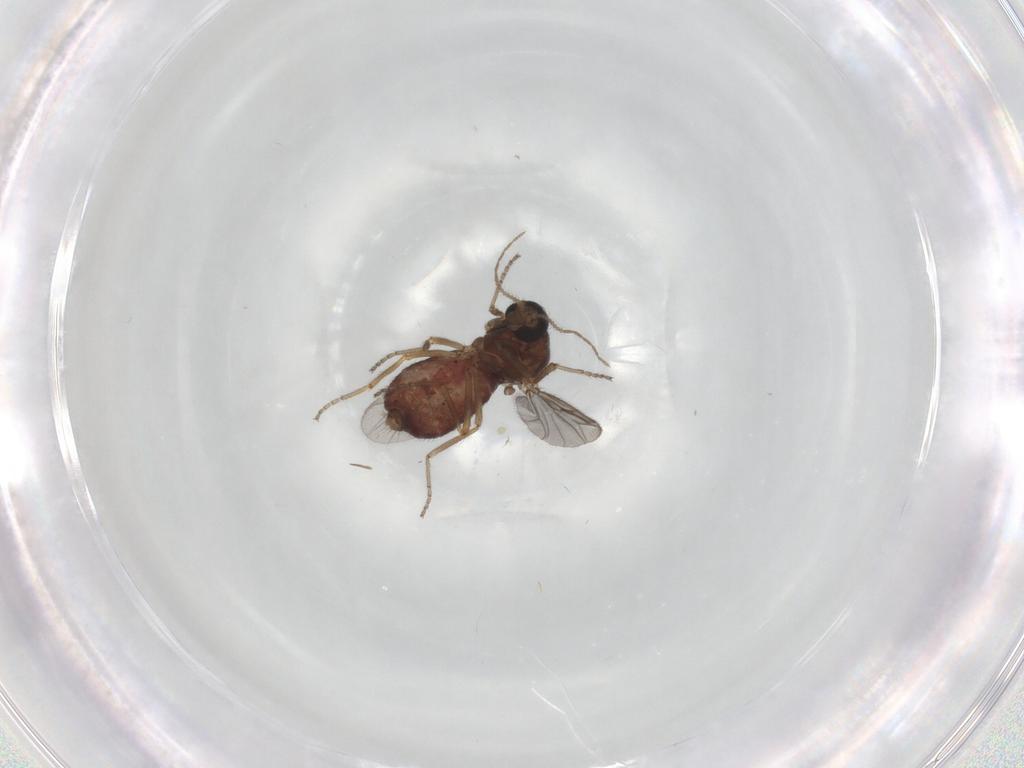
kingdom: Animalia
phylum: Arthropoda
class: Insecta
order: Diptera
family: Ceratopogonidae
